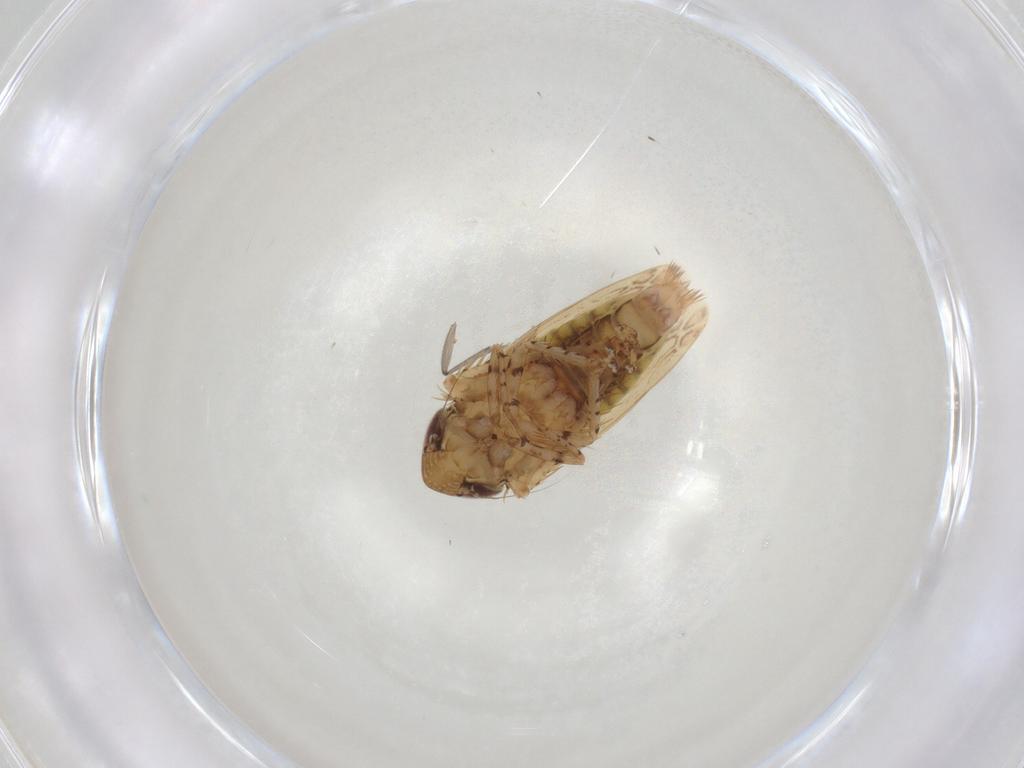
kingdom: Animalia
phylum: Arthropoda
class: Insecta
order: Hemiptera
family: Cicadellidae
